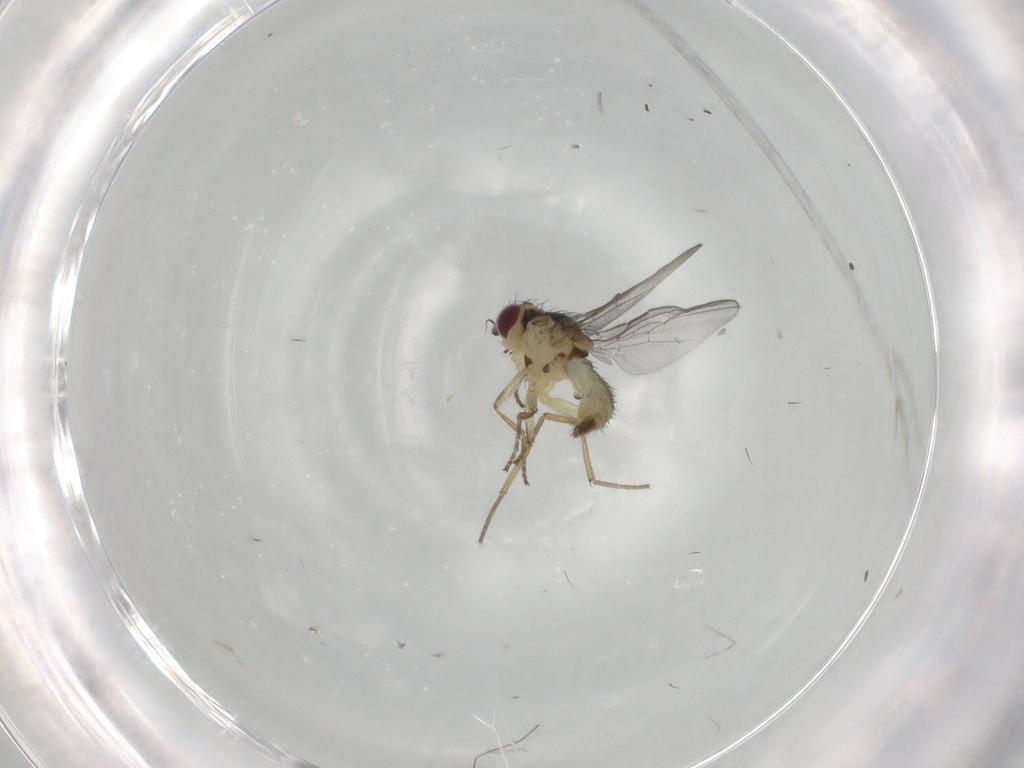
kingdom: Animalia
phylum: Arthropoda
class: Insecta
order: Diptera
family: Agromyzidae
